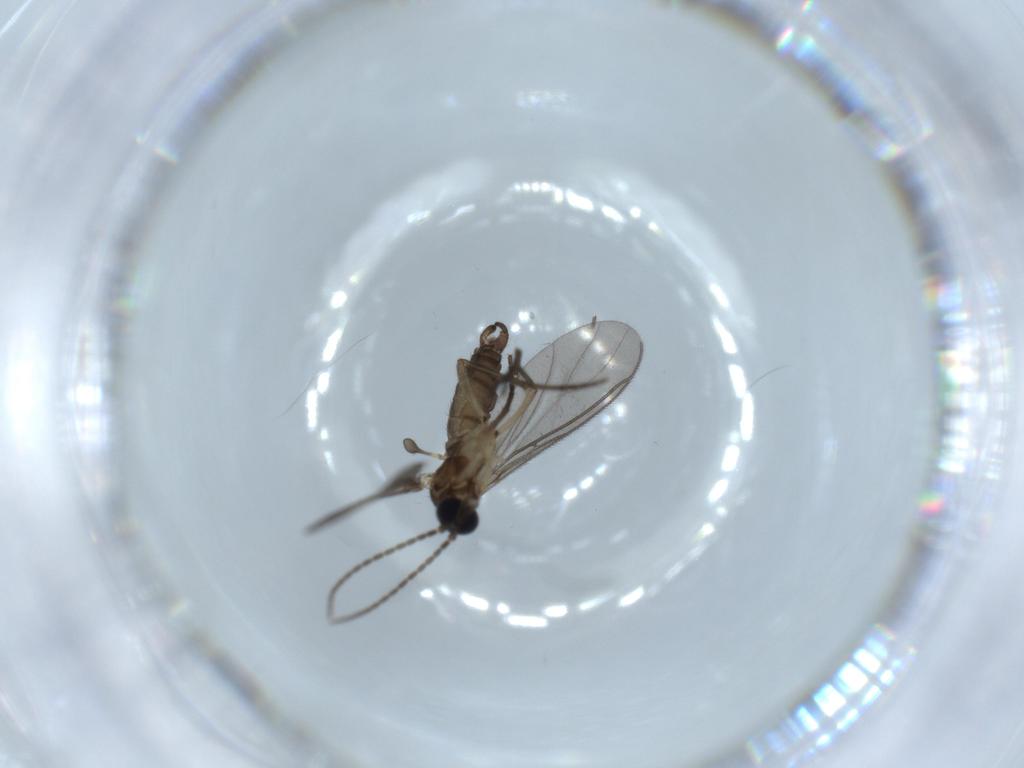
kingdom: Animalia
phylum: Arthropoda
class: Insecta
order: Diptera
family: Sciaridae
